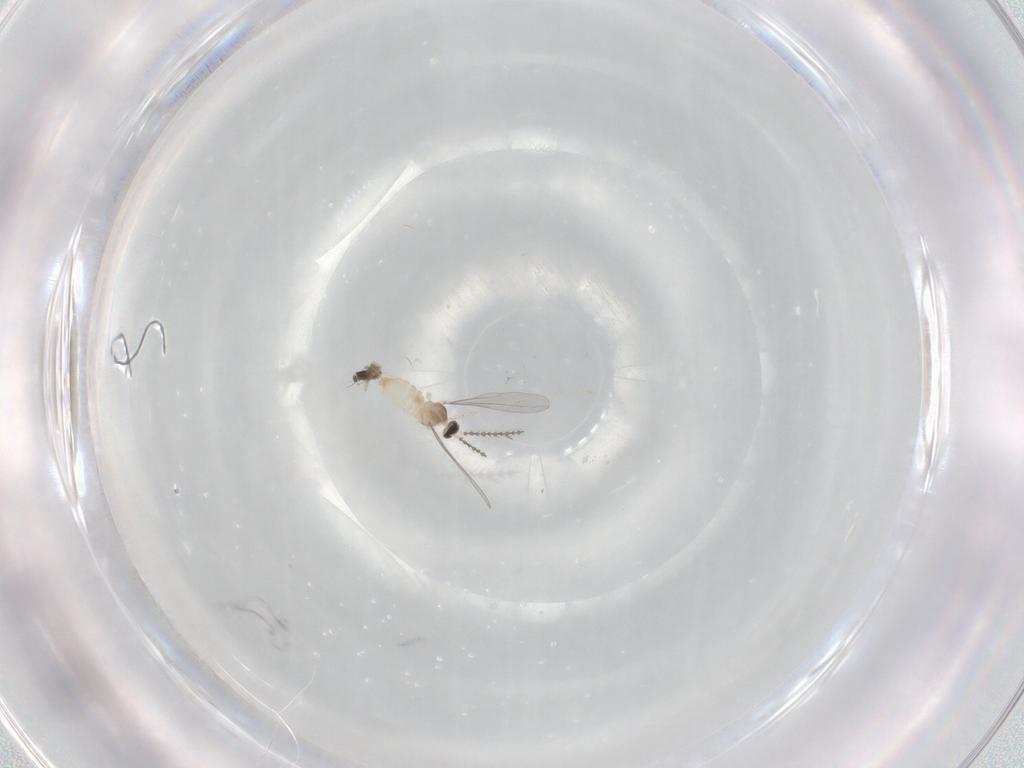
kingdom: Animalia
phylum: Arthropoda
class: Insecta
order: Diptera
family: Cecidomyiidae
